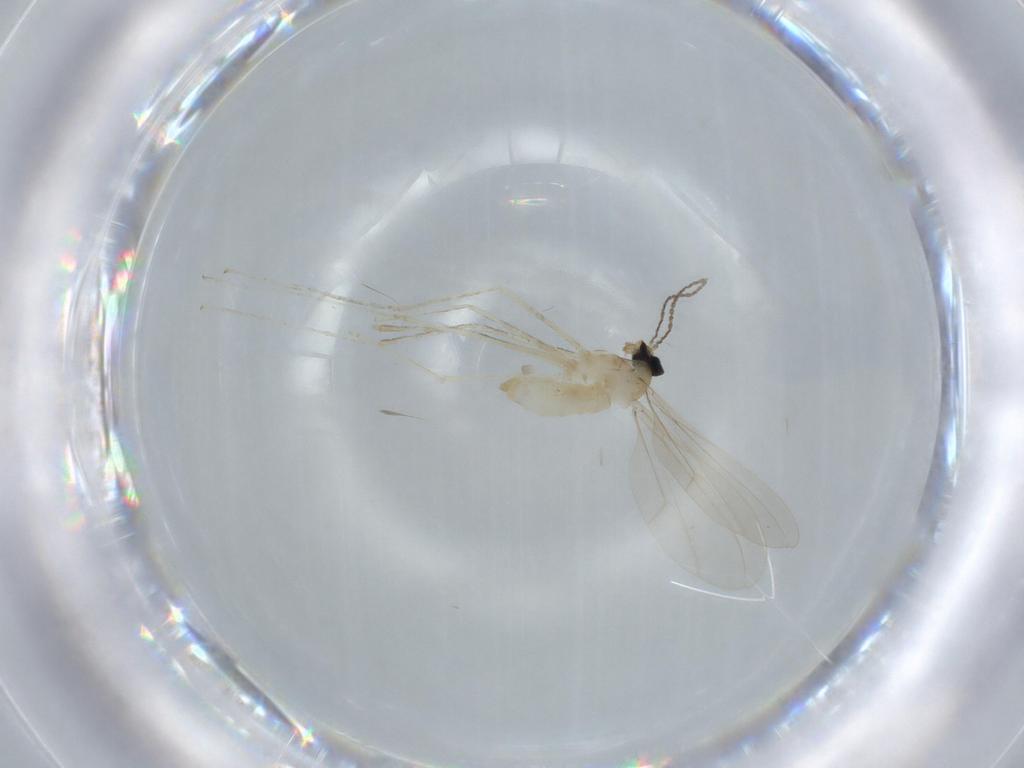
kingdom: Animalia
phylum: Arthropoda
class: Insecta
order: Diptera
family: Cecidomyiidae
